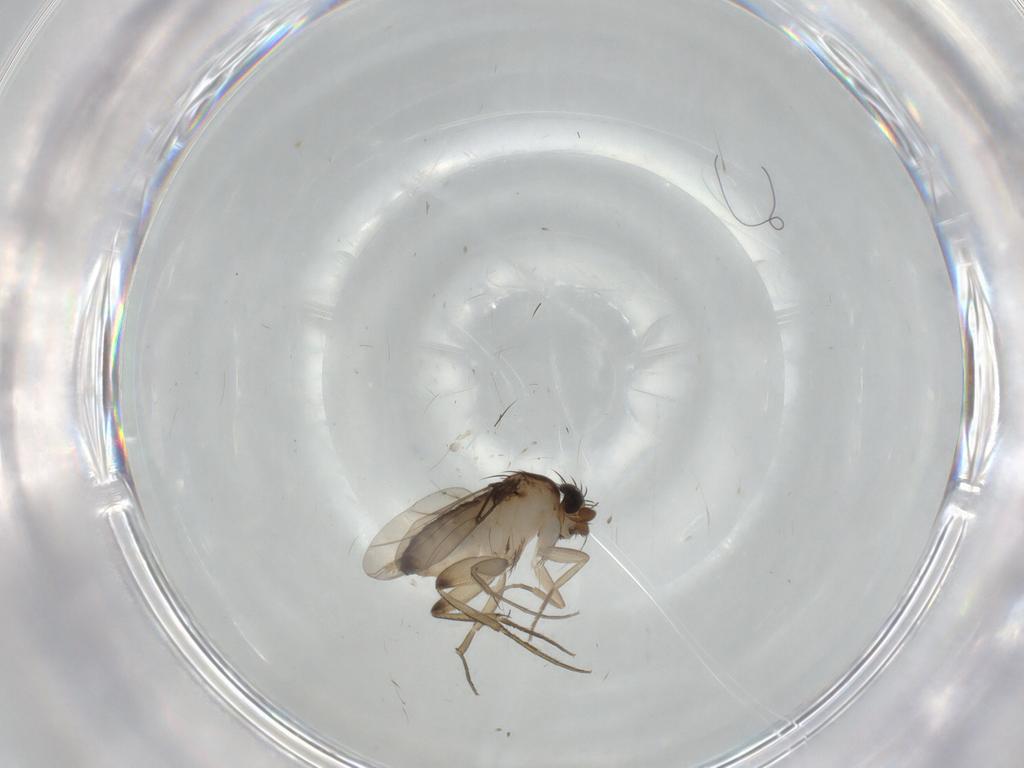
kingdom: Animalia
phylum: Arthropoda
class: Insecta
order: Diptera
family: Phoridae
